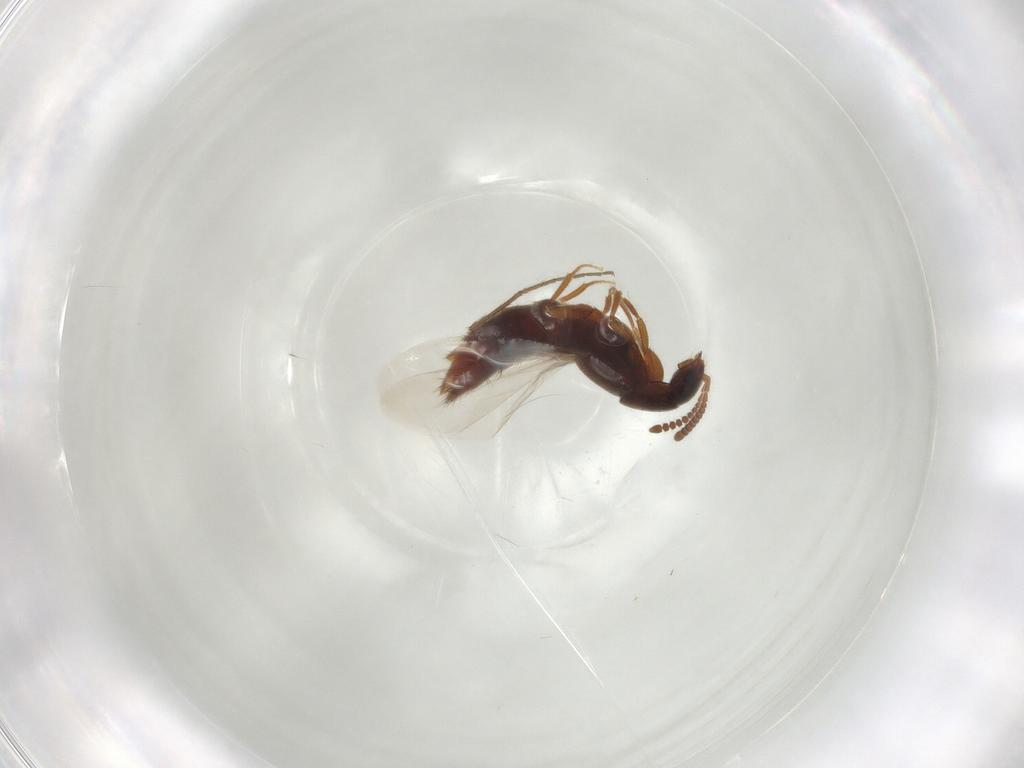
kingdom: Animalia
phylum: Arthropoda
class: Insecta
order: Coleoptera
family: Staphylinidae
